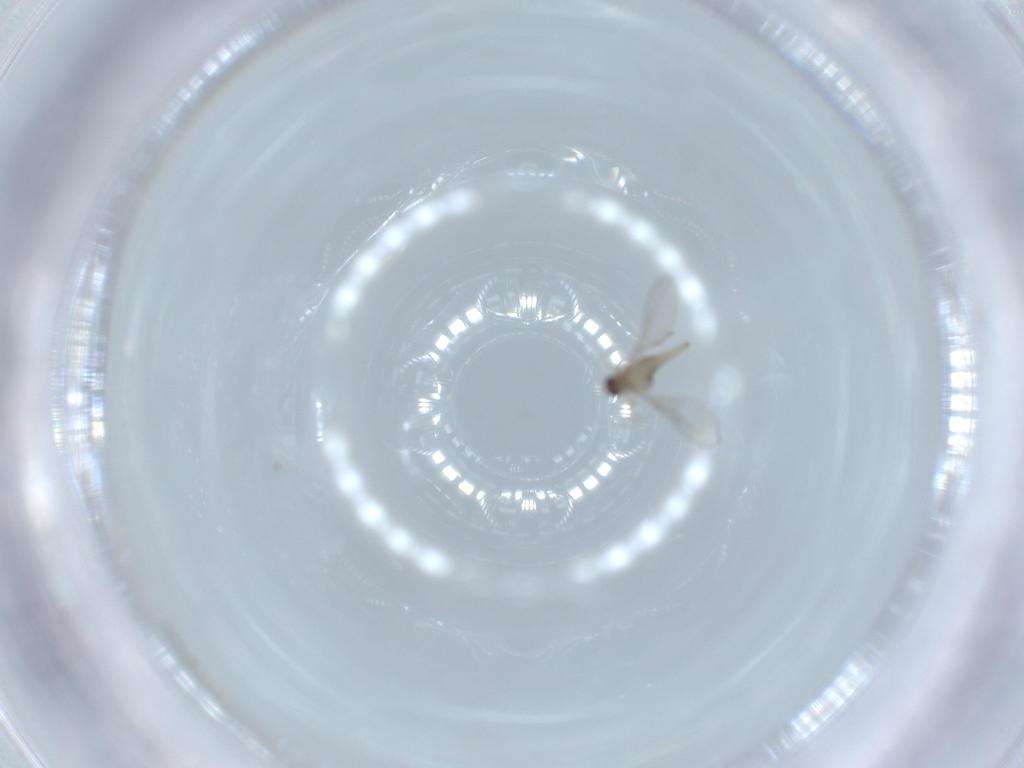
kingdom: Animalia
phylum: Arthropoda
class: Insecta
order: Diptera
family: Cecidomyiidae
